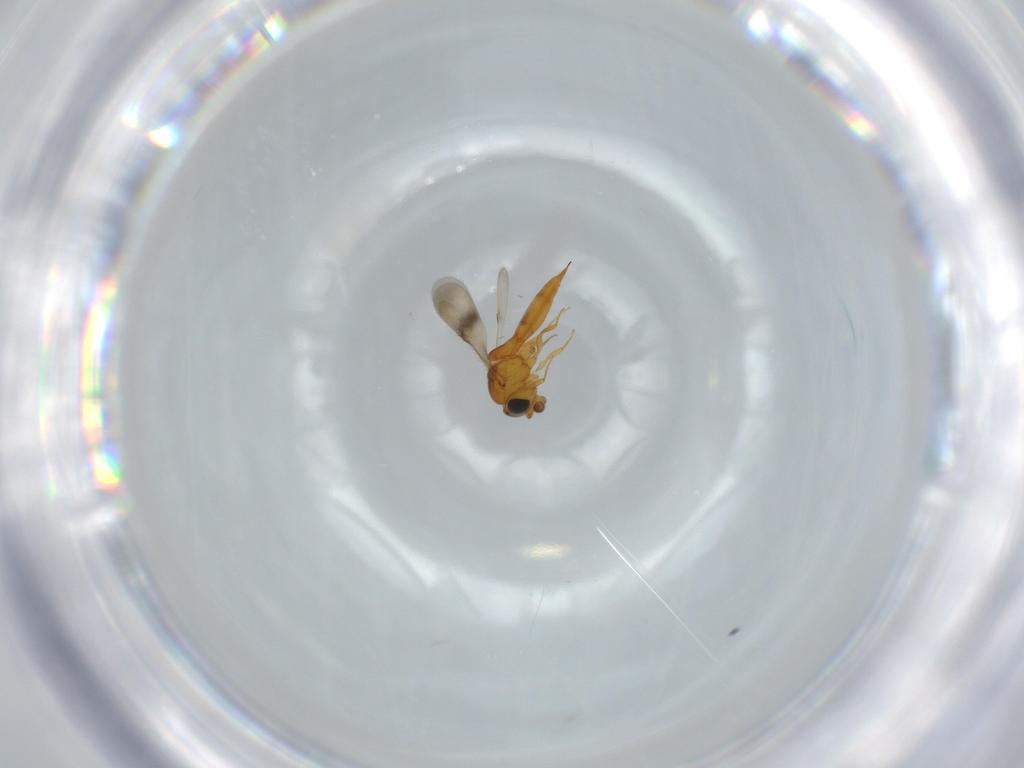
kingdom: Animalia
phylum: Arthropoda
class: Insecta
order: Hymenoptera
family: Scelionidae
